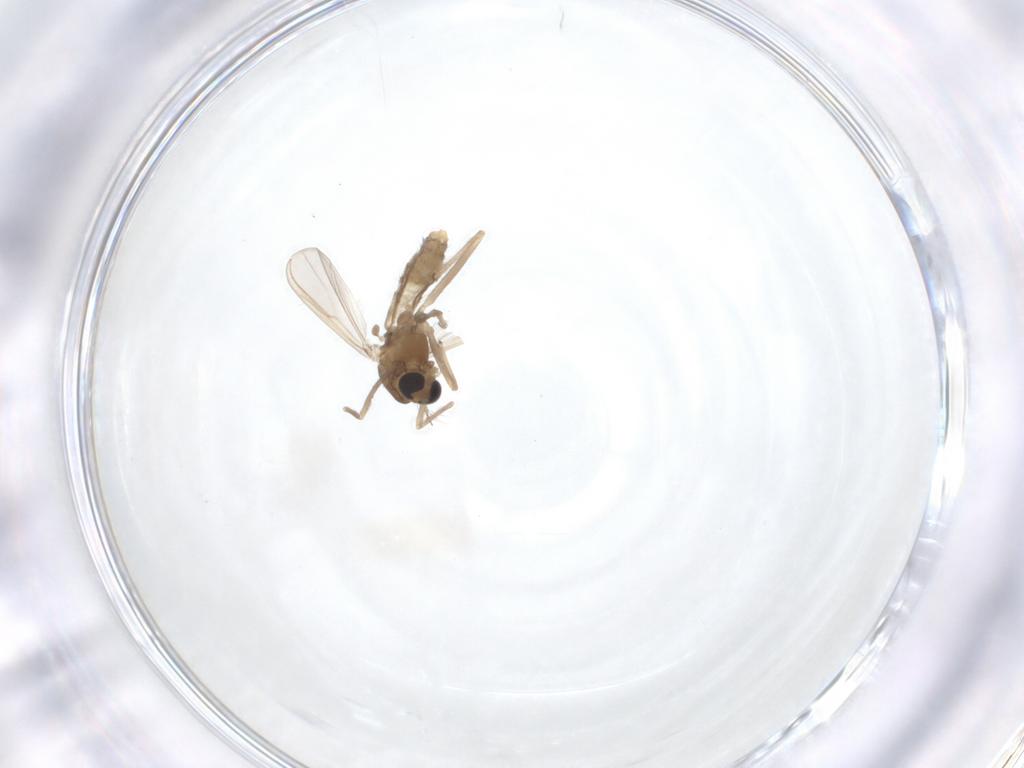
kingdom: Animalia
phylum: Arthropoda
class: Insecta
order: Diptera
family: Chironomidae
